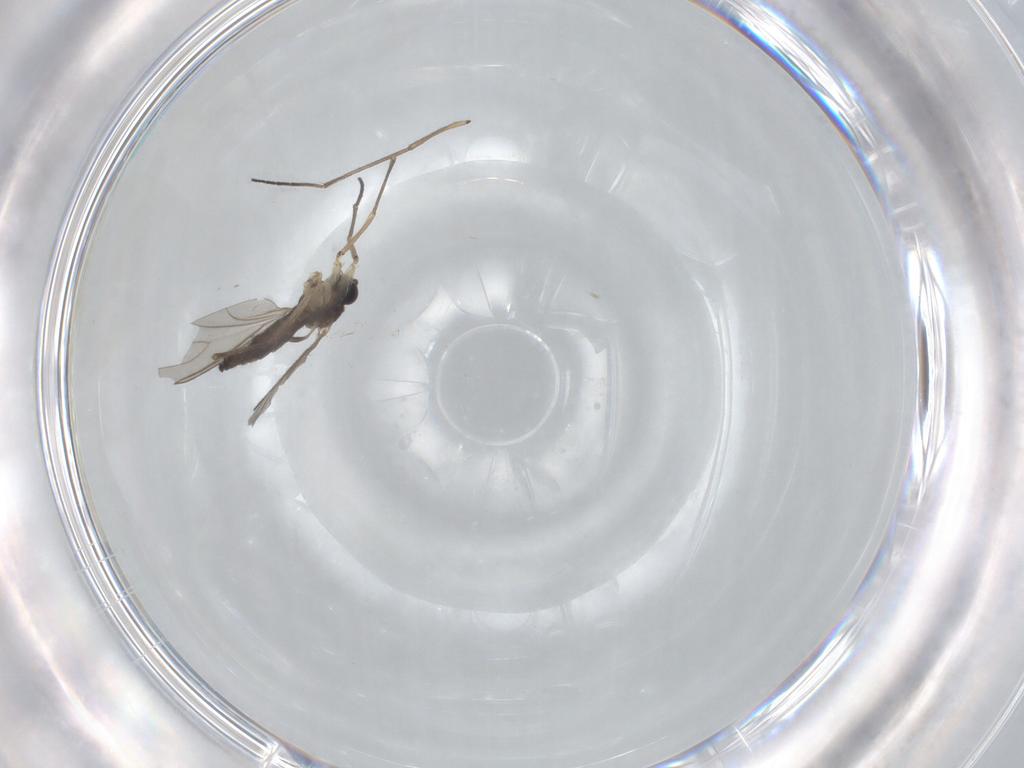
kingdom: Animalia
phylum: Arthropoda
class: Insecta
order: Diptera
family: Sciaridae
